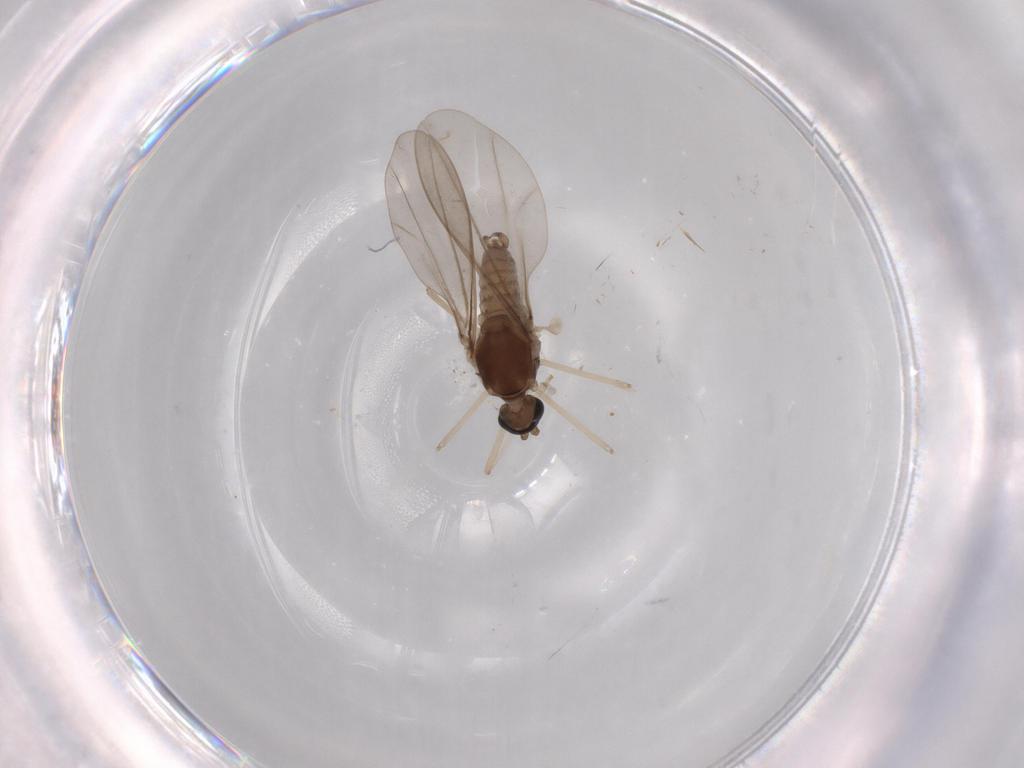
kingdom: Animalia
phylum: Arthropoda
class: Insecta
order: Diptera
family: Cecidomyiidae
